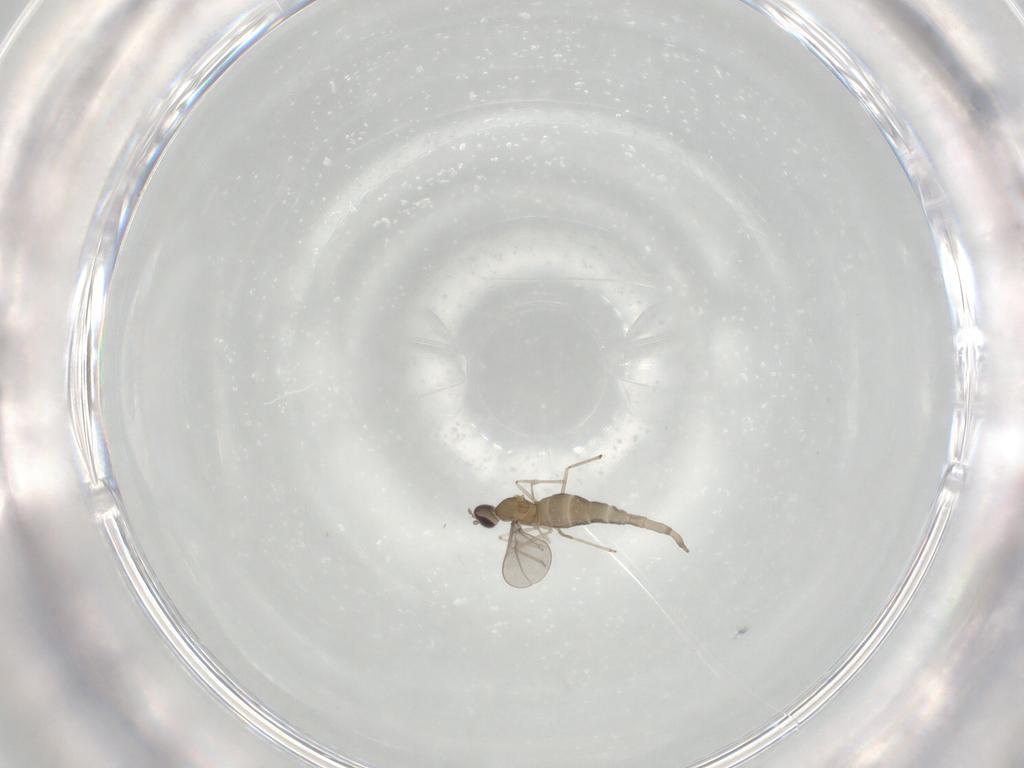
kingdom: Animalia
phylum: Arthropoda
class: Insecta
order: Diptera
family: Cecidomyiidae
